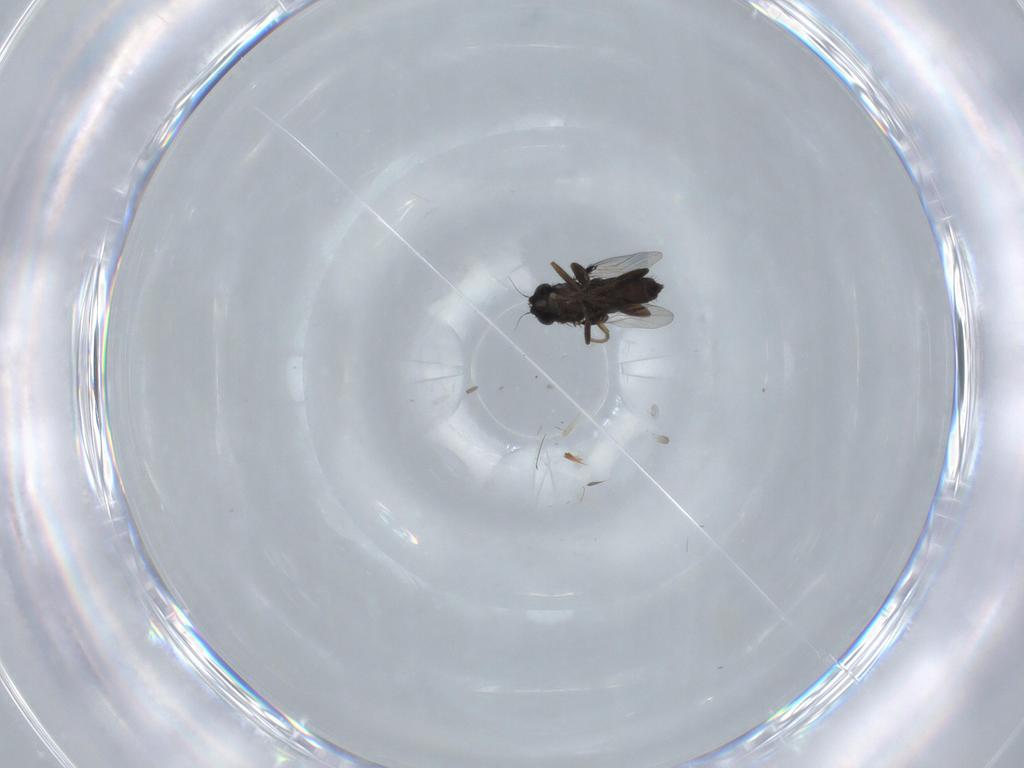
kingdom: Animalia
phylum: Arthropoda
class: Insecta
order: Diptera
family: Phoridae
